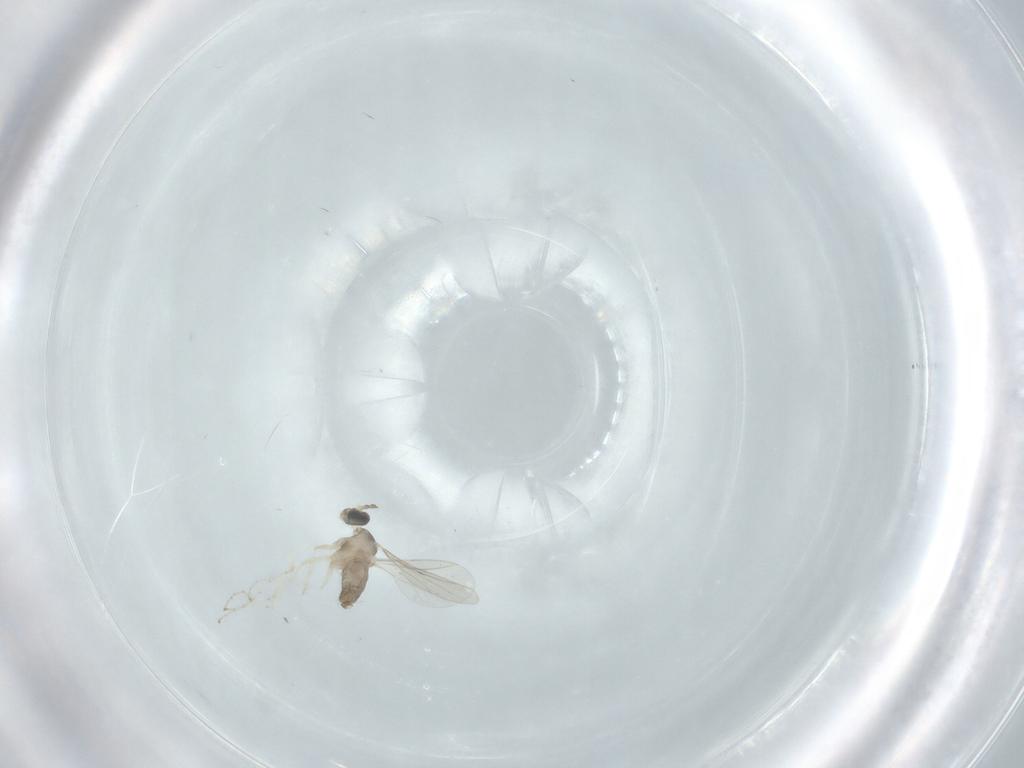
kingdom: Animalia
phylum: Arthropoda
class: Insecta
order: Diptera
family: Cecidomyiidae
